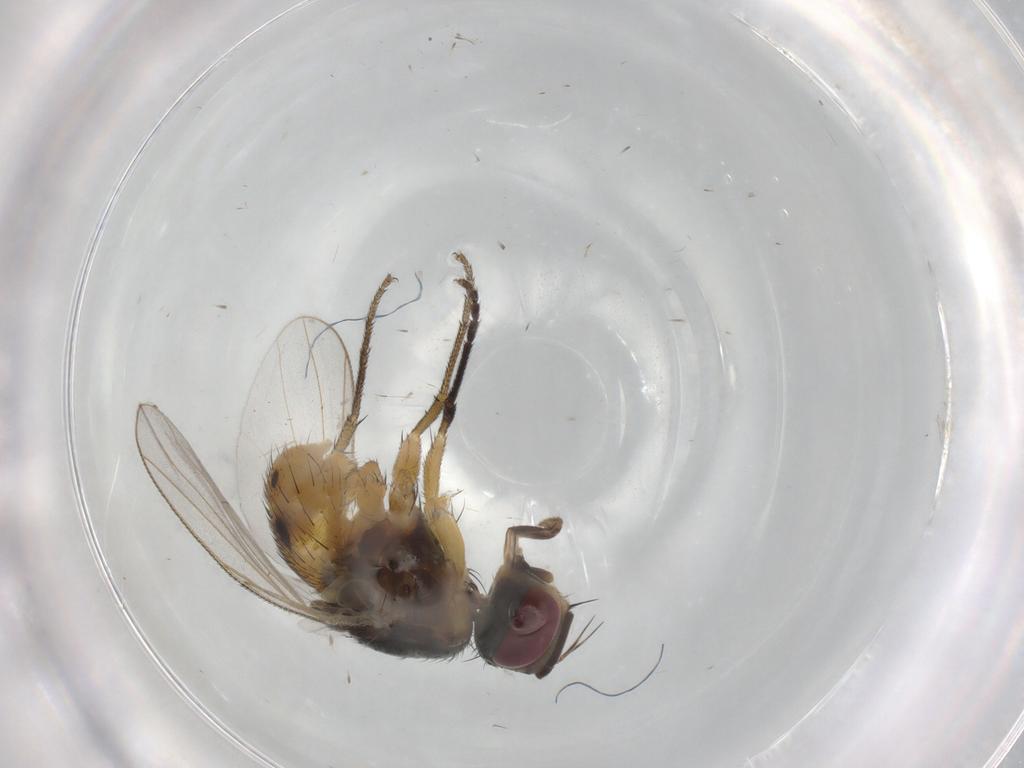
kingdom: Animalia
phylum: Arthropoda
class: Insecta
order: Diptera
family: Muscidae
